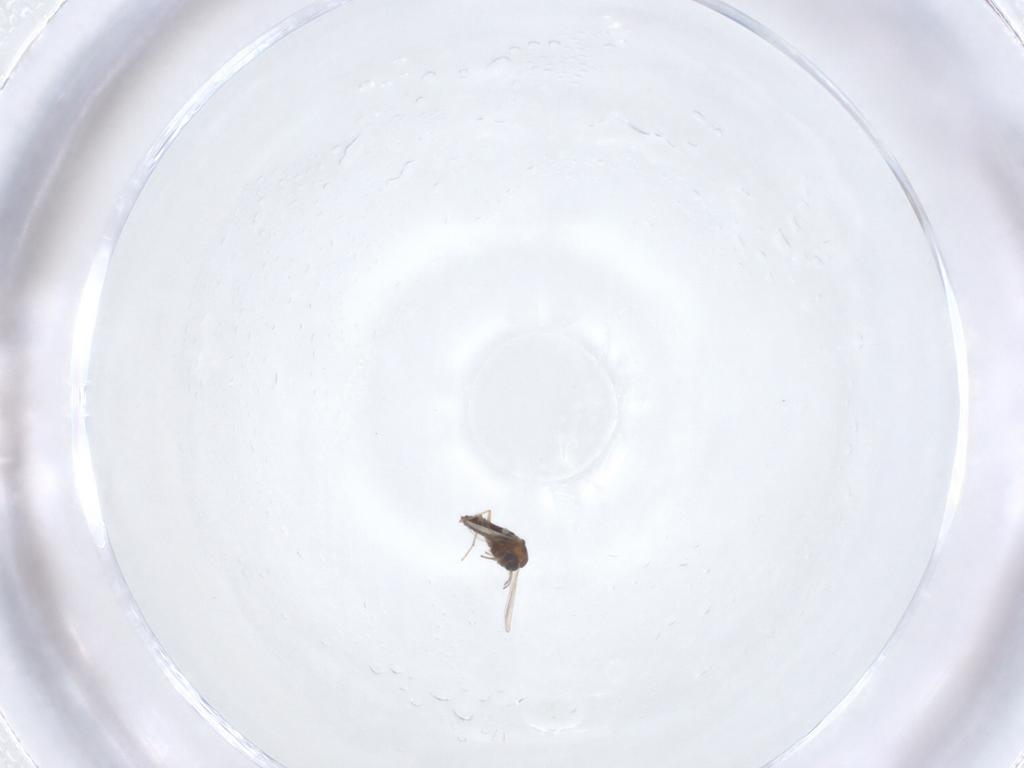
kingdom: Animalia
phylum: Arthropoda
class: Insecta
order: Diptera
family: Chironomidae
